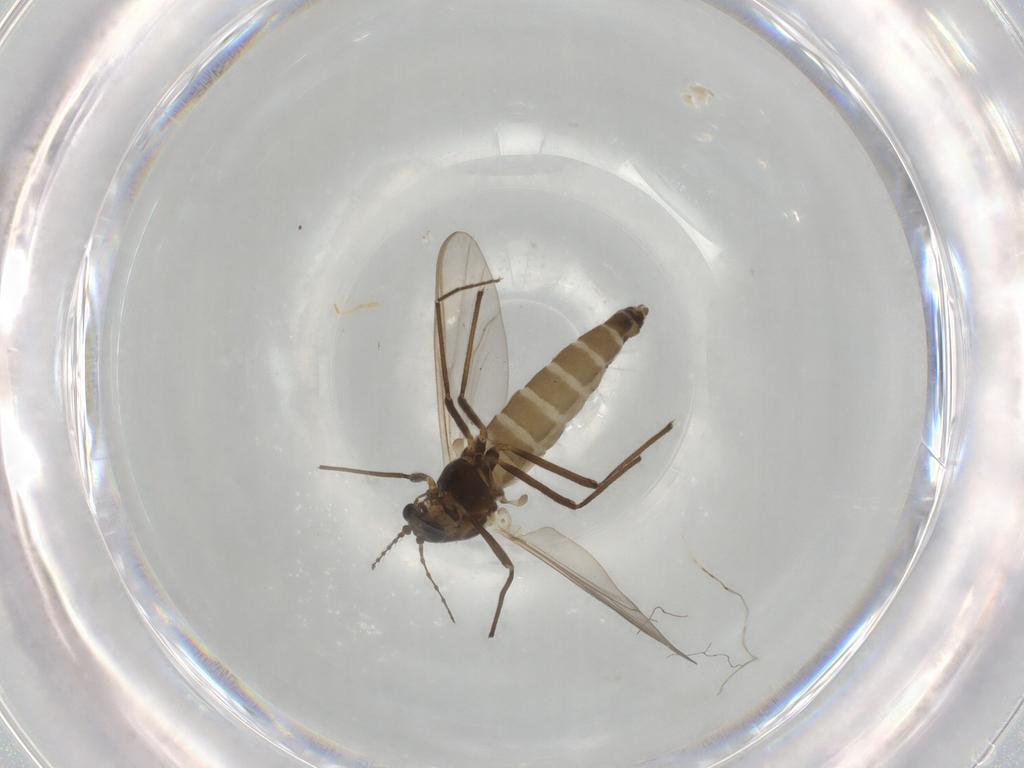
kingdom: Animalia
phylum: Arthropoda
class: Insecta
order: Diptera
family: Chironomidae
